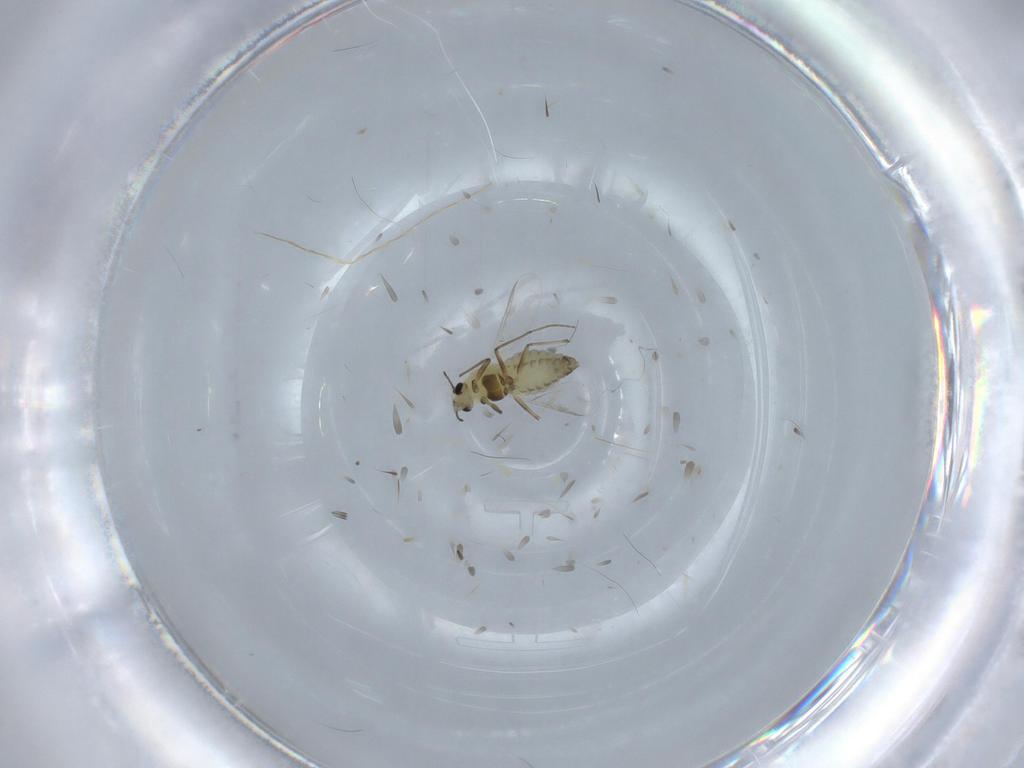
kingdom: Animalia
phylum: Arthropoda
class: Insecta
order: Diptera
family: Chironomidae
